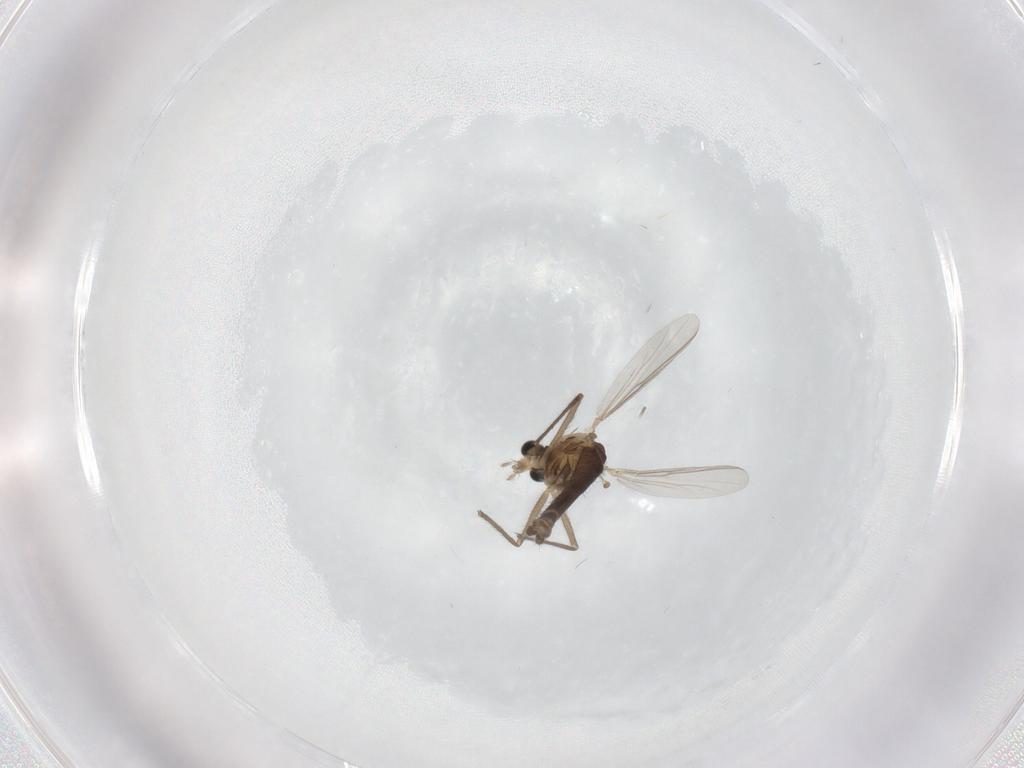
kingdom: Animalia
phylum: Arthropoda
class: Insecta
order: Diptera
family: Chironomidae
